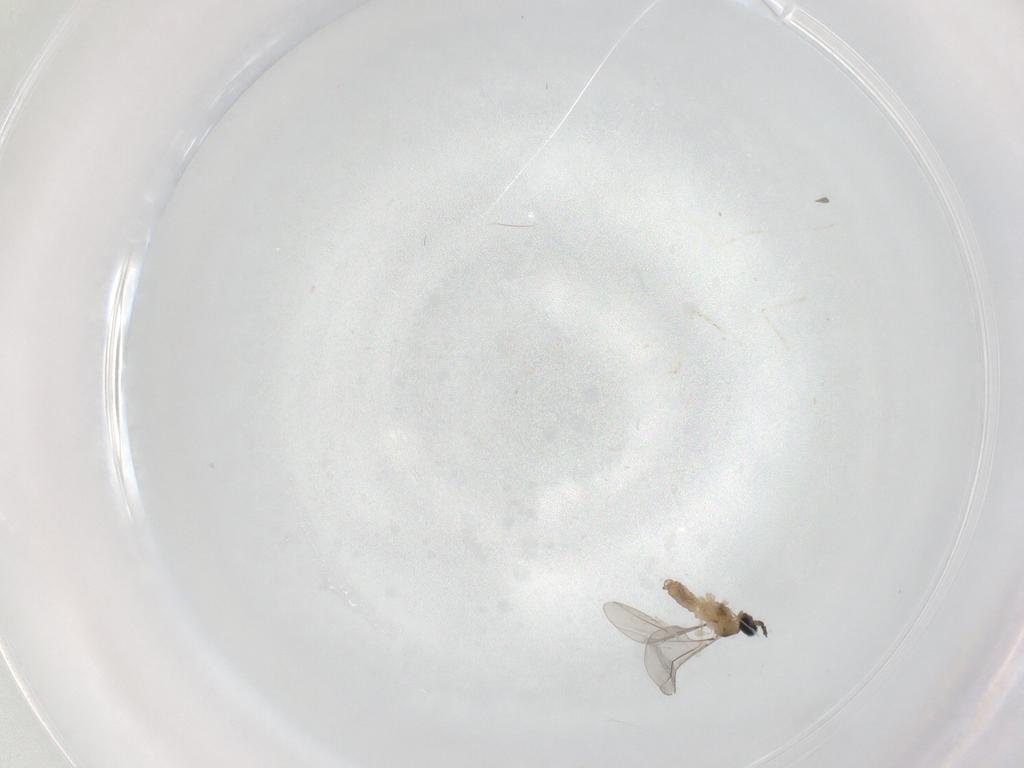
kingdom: Animalia
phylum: Arthropoda
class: Insecta
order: Diptera
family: Cecidomyiidae
